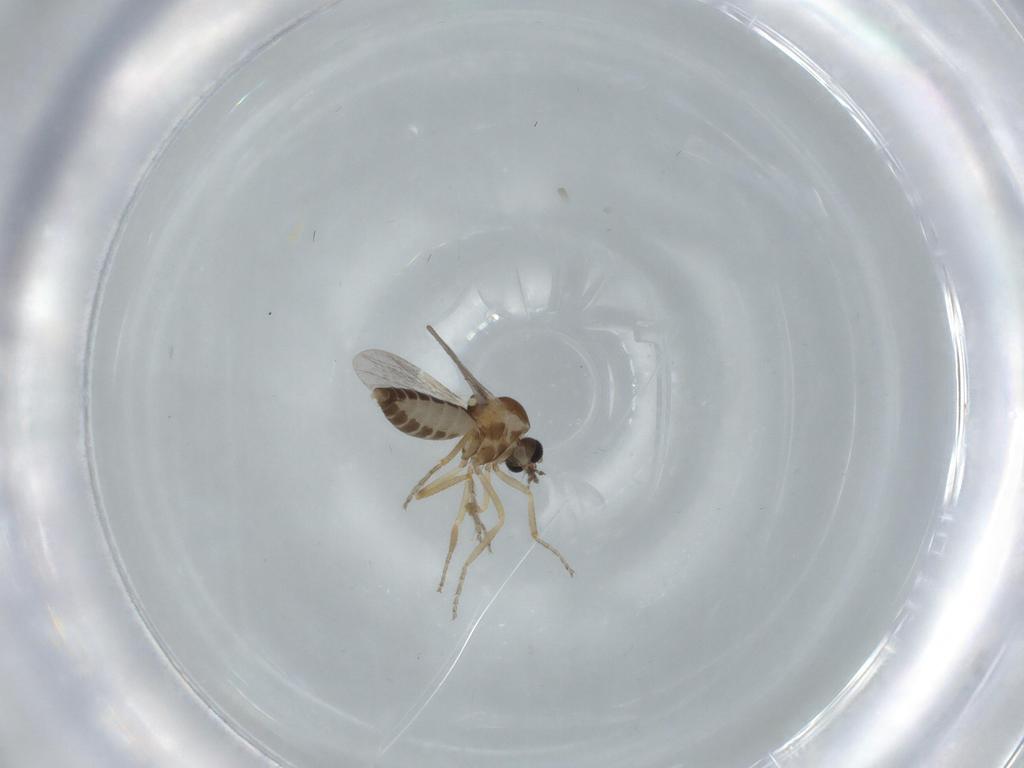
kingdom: Animalia
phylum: Arthropoda
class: Insecta
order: Diptera
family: Ceratopogonidae
